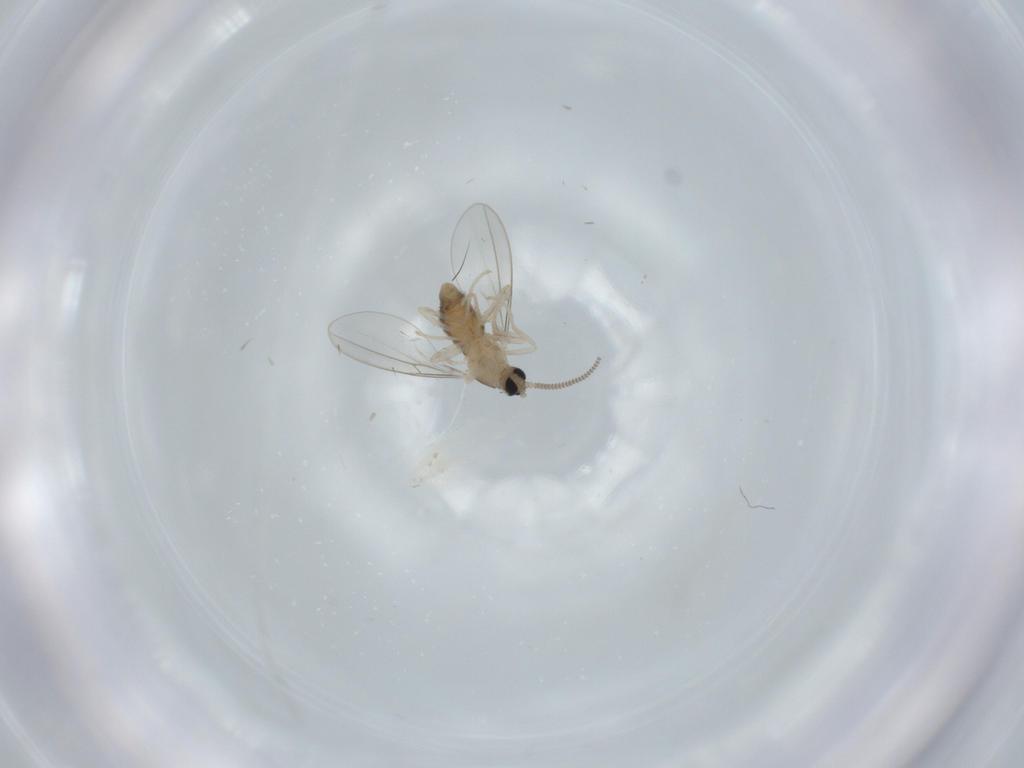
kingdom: Animalia
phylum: Arthropoda
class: Insecta
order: Diptera
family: Cecidomyiidae
